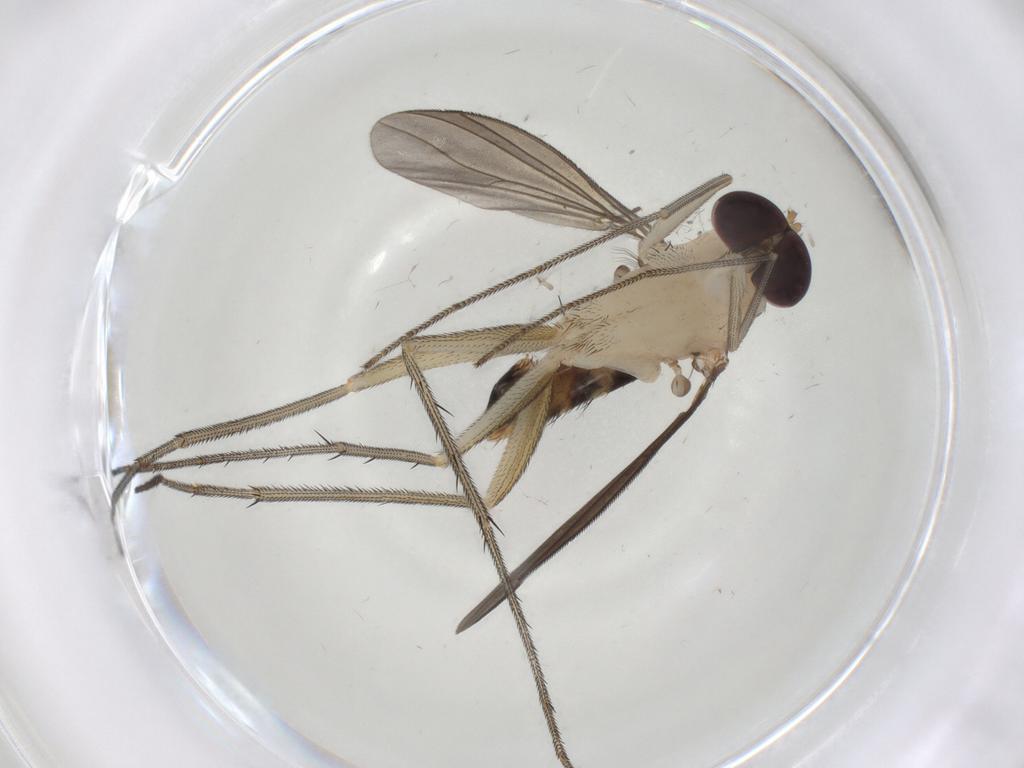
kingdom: Animalia
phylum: Arthropoda
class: Insecta
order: Diptera
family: Dolichopodidae
